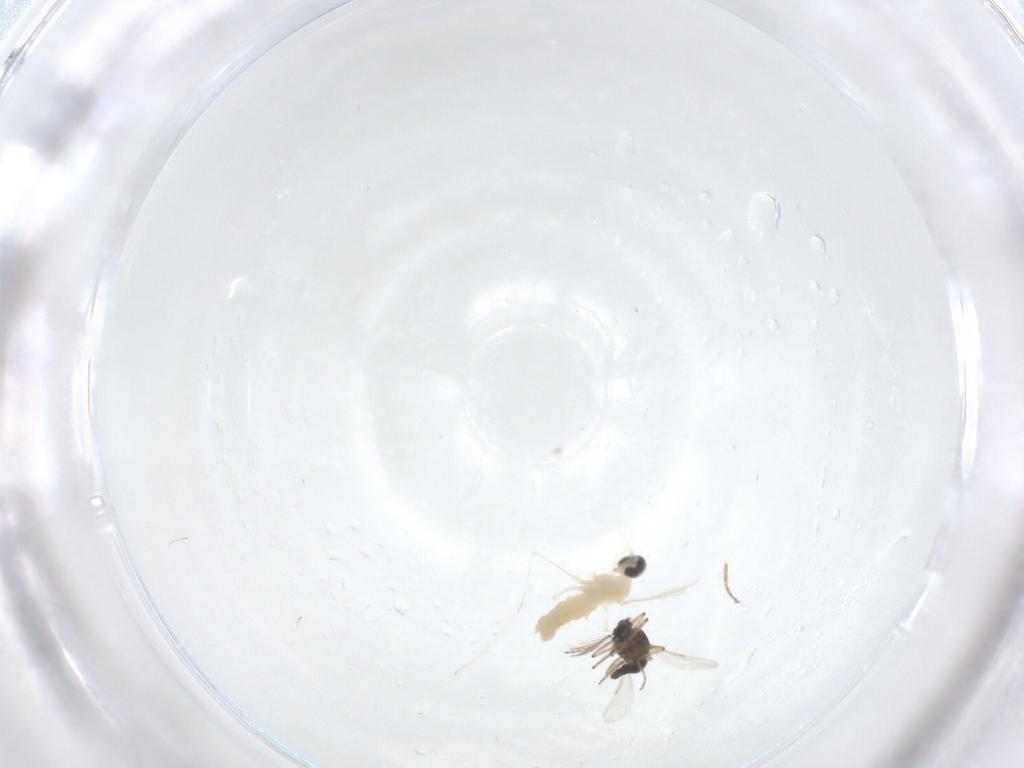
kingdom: Animalia
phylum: Arthropoda
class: Insecta
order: Diptera
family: Cecidomyiidae
